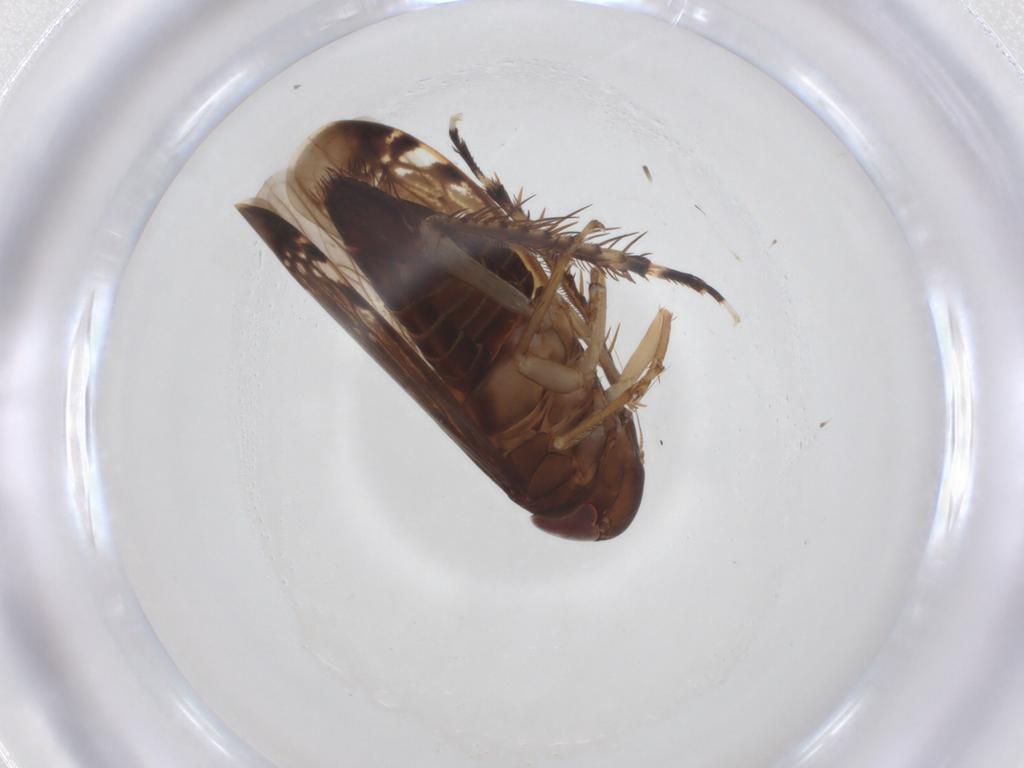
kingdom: Animalia
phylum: Arthropoda
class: Insecta
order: Hemiptera
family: Cicadellidae
